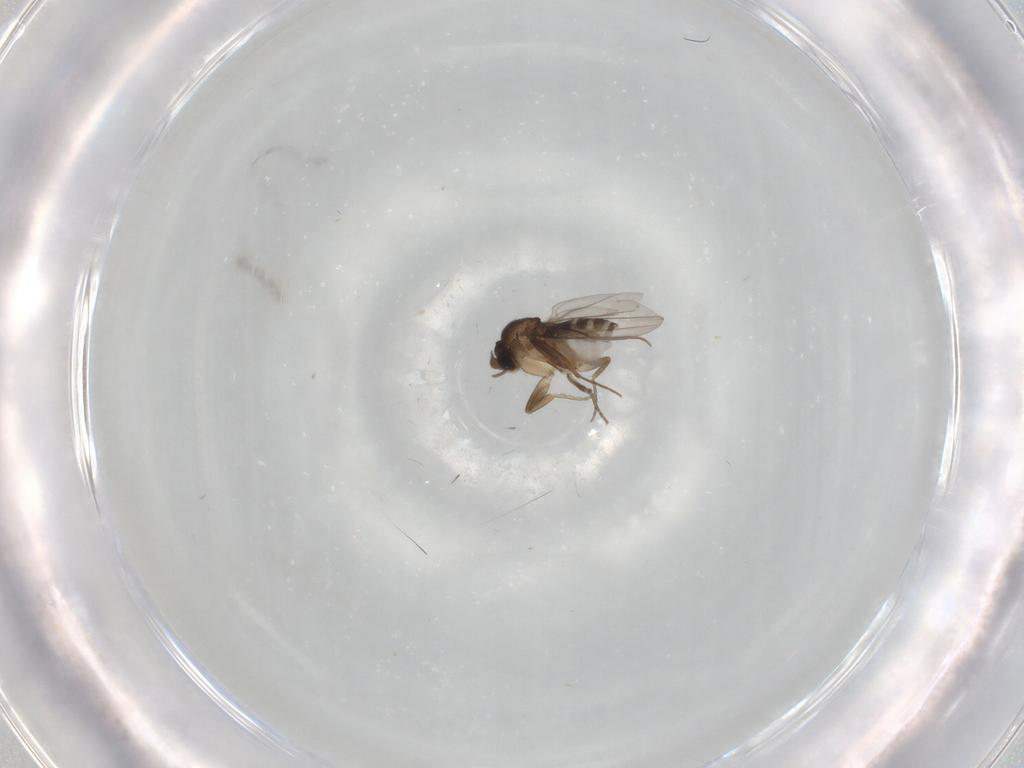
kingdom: Animalia
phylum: Arthropoda
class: Insecta
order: Diptera
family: Phoridae
